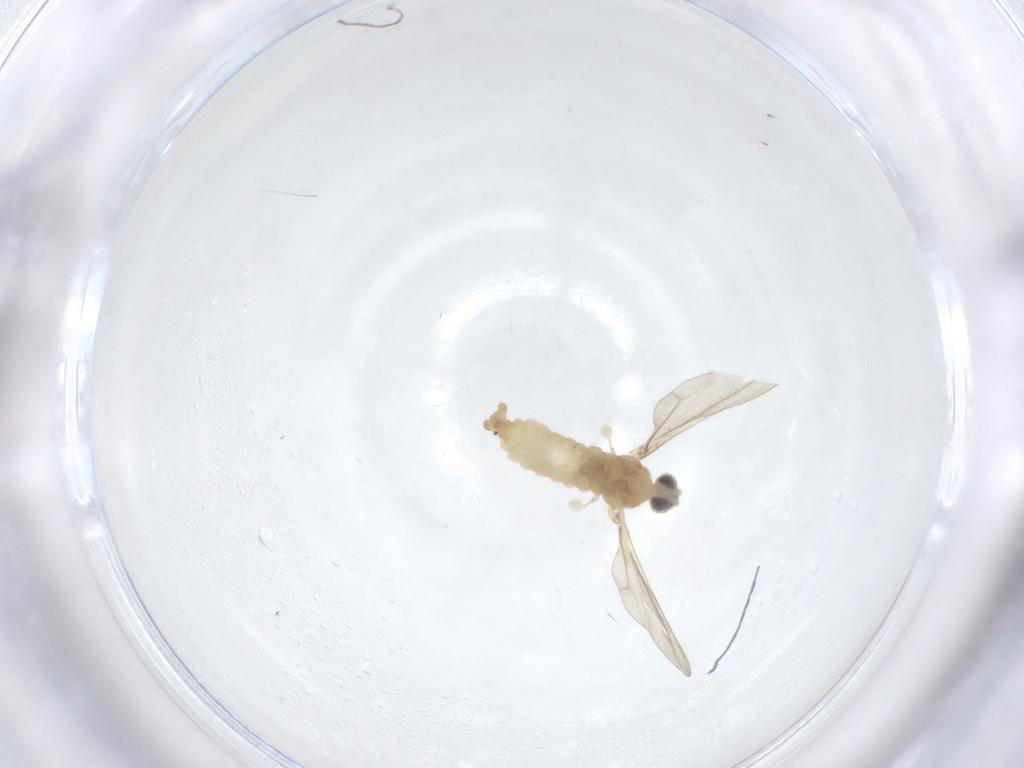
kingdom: Animalia
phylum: Arthropoda
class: Insecta
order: Diptera
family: Cecidomyiidae
